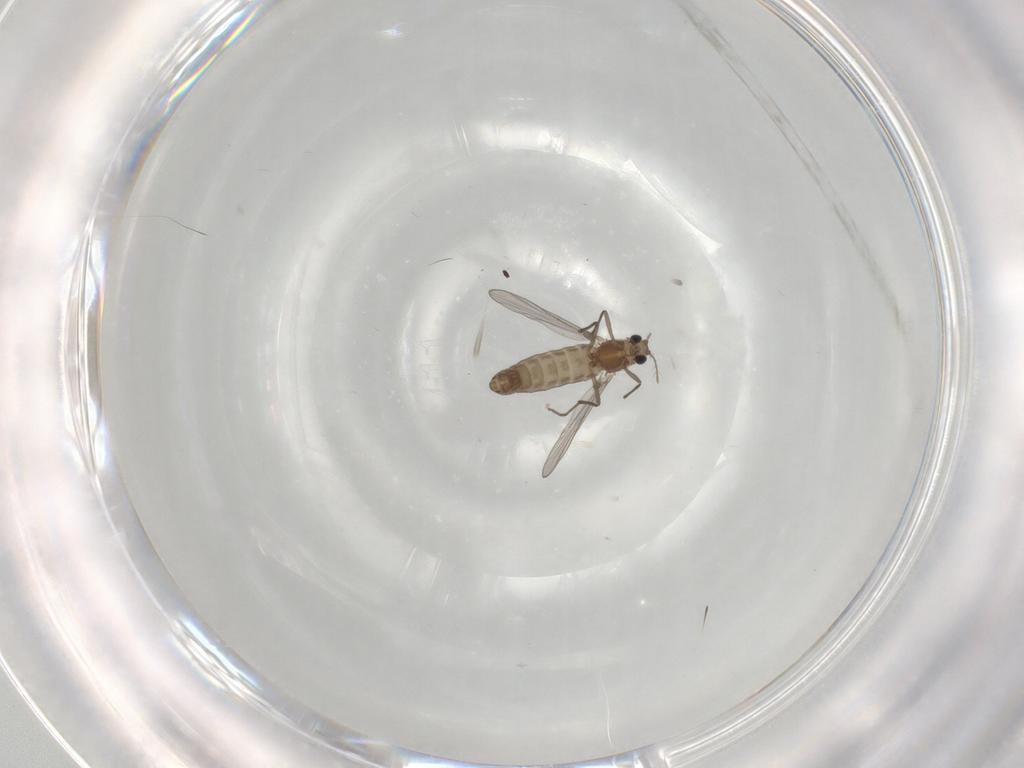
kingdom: Animalia
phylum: Arthropoda
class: Insecta
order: Diptera
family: Chironomidae
